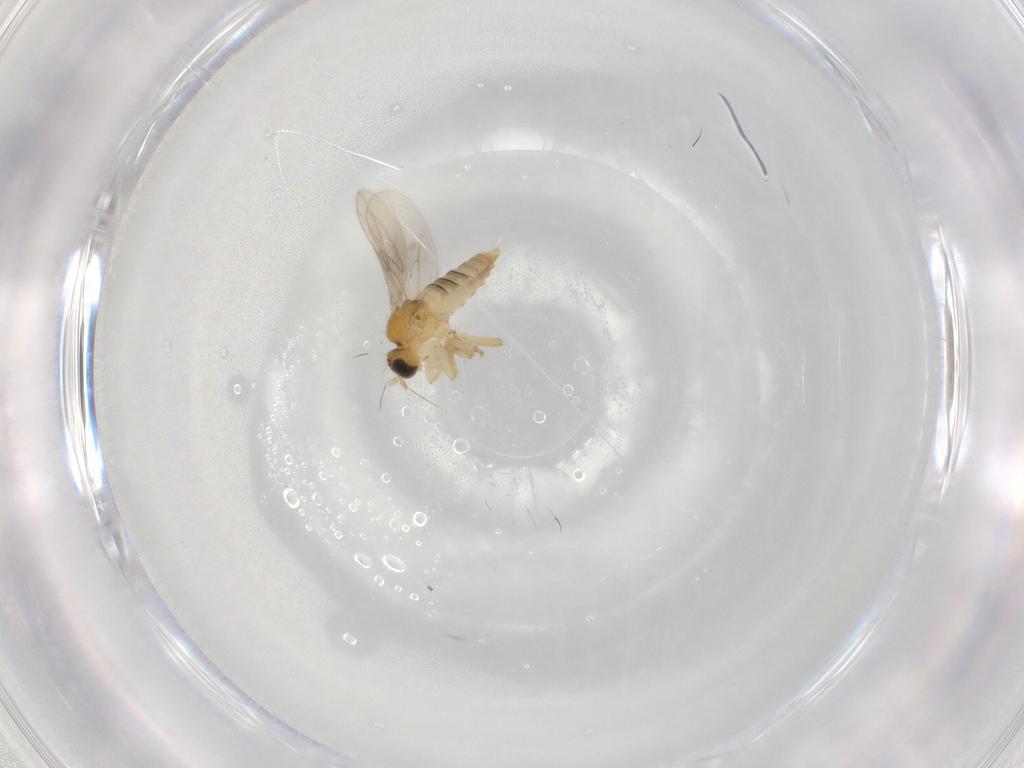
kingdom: Animalia
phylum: Arthropoda
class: Insecta
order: Diptera
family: Hybotidae
